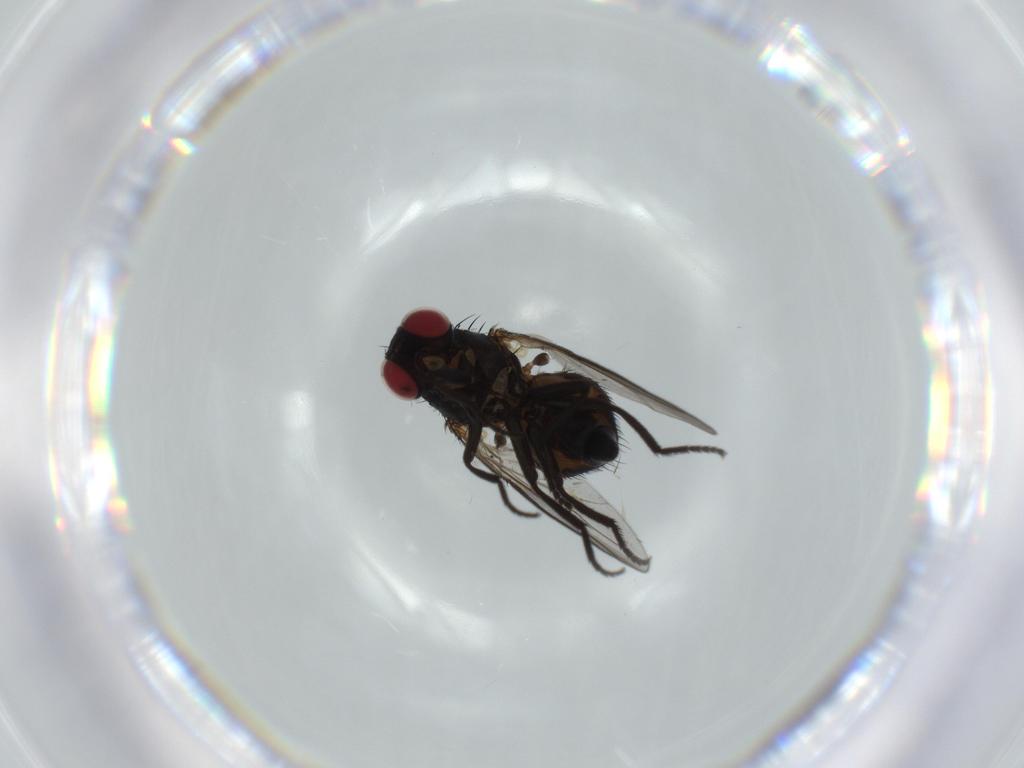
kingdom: Animalia
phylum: Arthropoda
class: Insecta
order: Diptera
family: Agromyzidae
